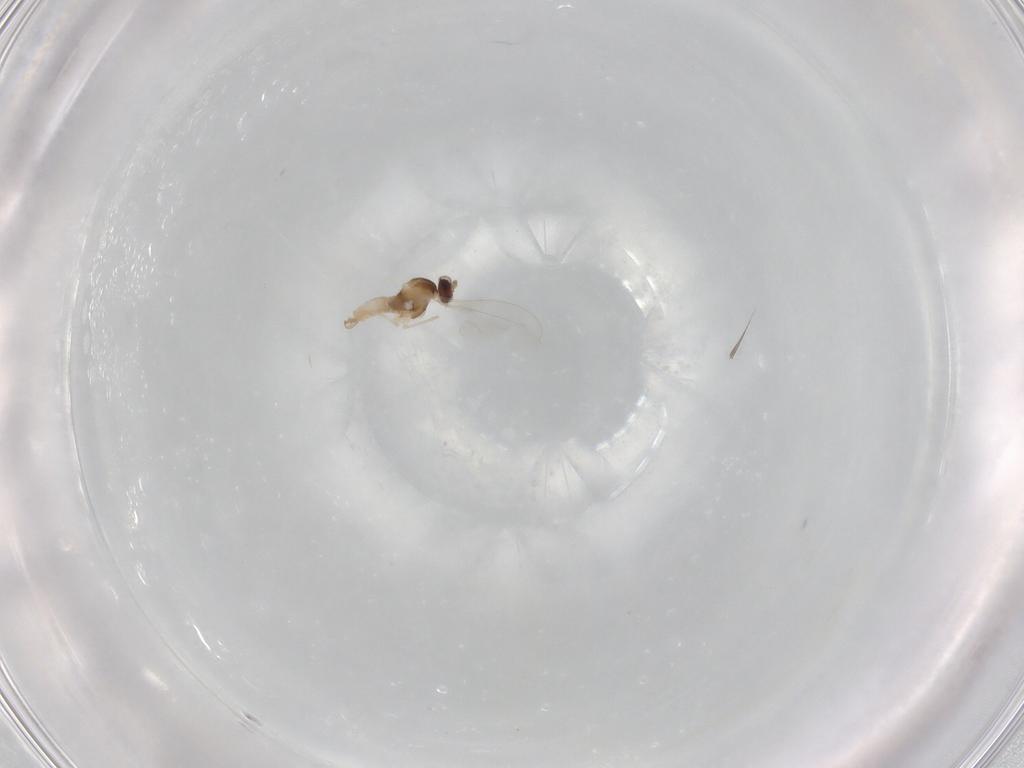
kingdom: Animalia
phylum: Arthropoda
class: Insecta
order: Diptera
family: Cecidomyiidae
